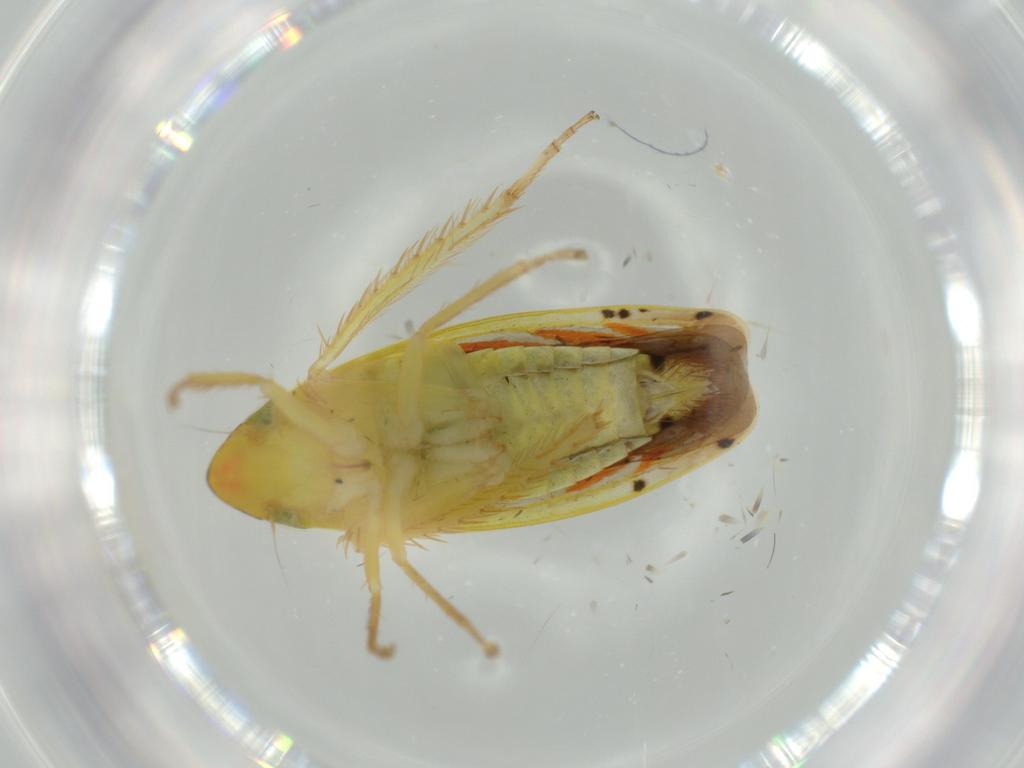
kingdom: Animalia
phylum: Arthropoda
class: Insecta
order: Hemiptera
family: Cicadellidae
